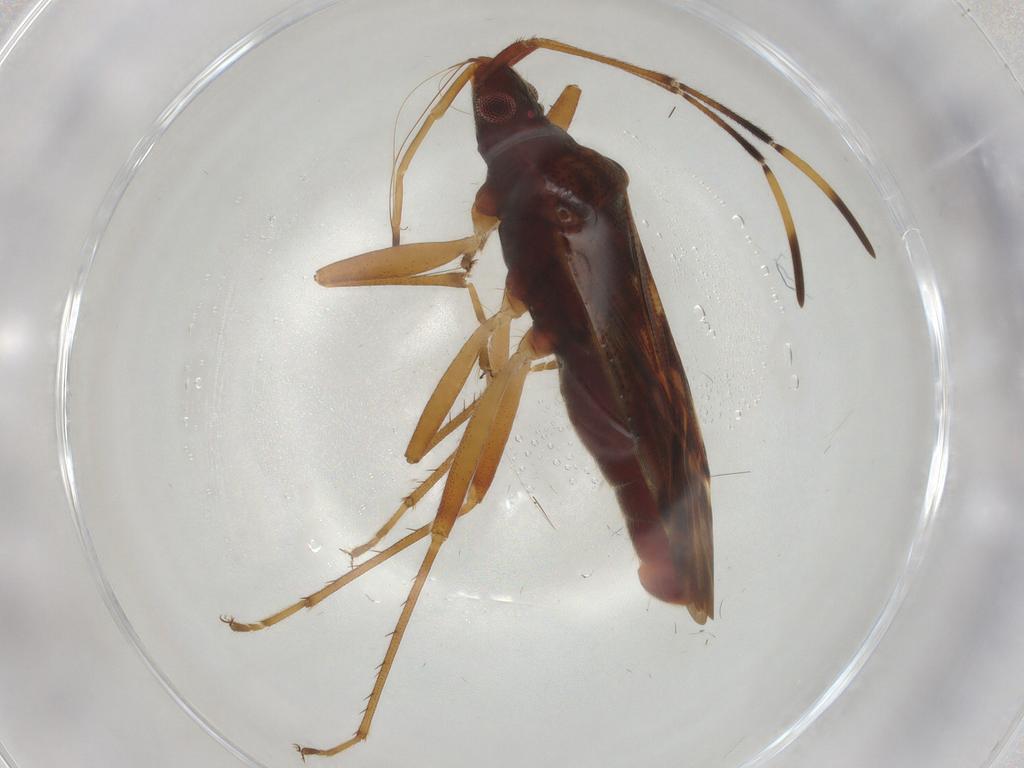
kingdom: Animalia
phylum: Arthropoda
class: Insecta
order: Hemiptera
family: Rhyparochromidae
